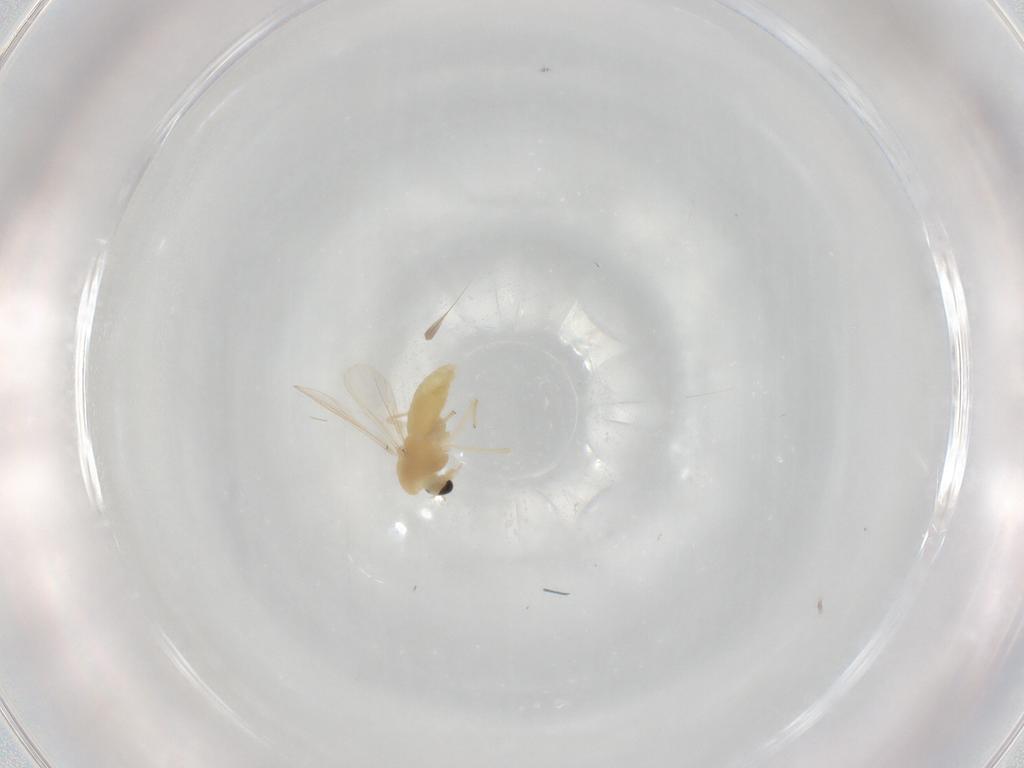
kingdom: Animalia
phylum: Arthropoda
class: Insecta
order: Diptera
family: Chironomidae
